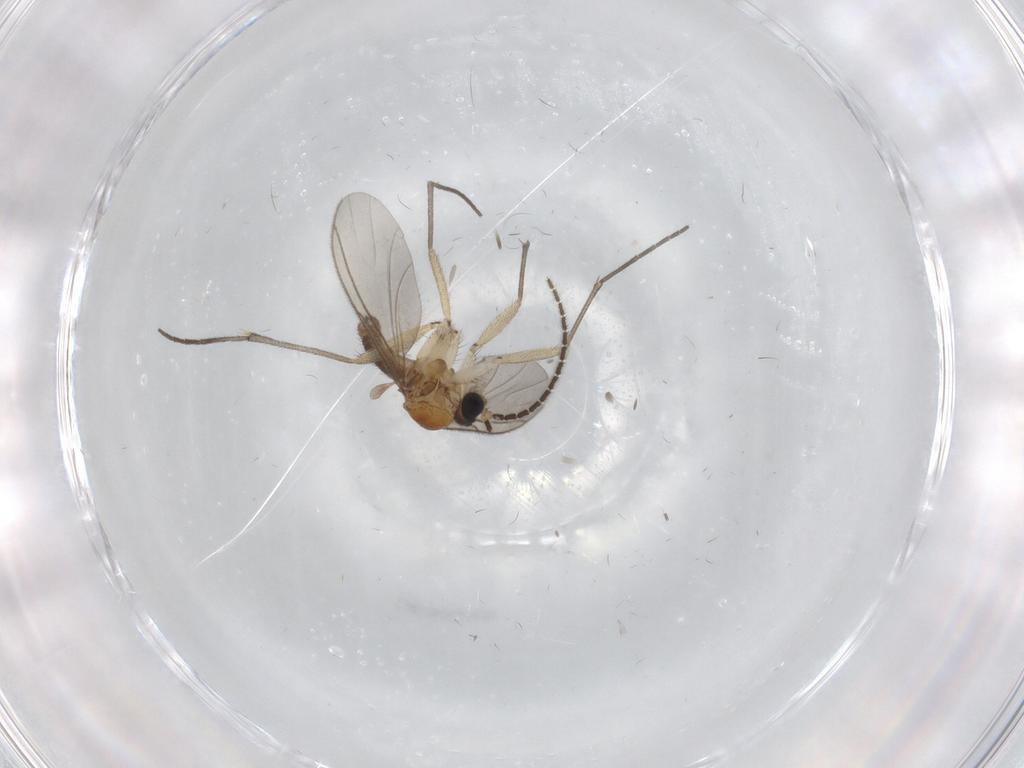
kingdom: Animalia
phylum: Arthropoda
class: Insecta
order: Diptera
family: Sciaridae
